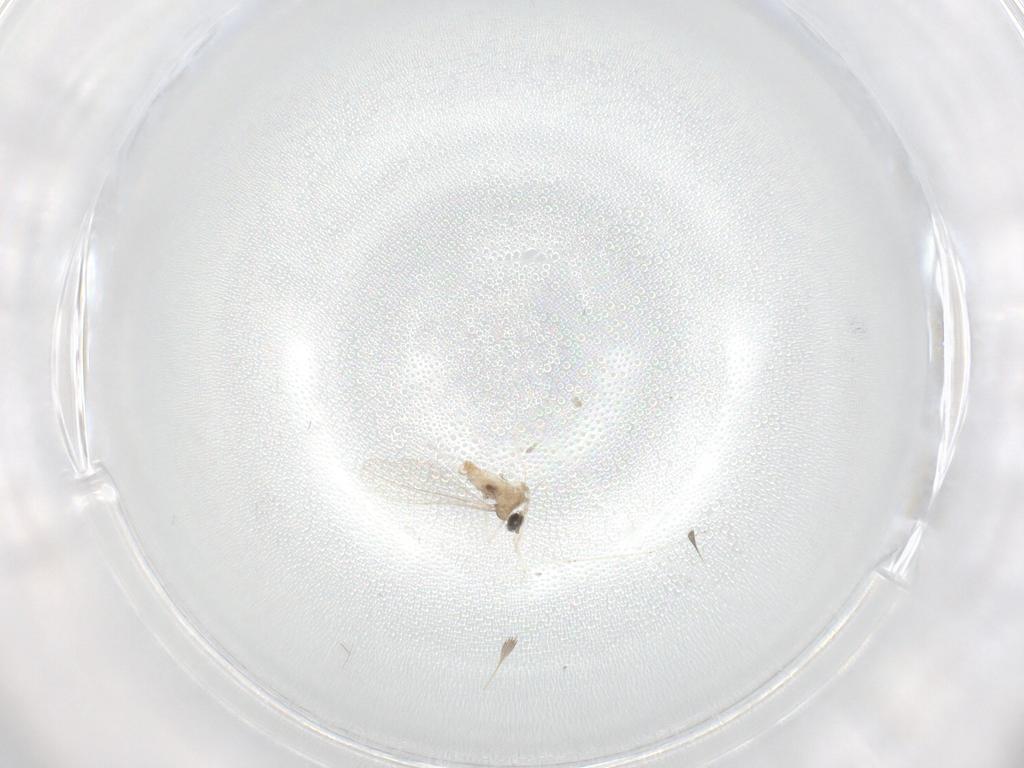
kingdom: Animalia
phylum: Arthropoda
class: Insecta
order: Diptera
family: Cecidomyiidae
